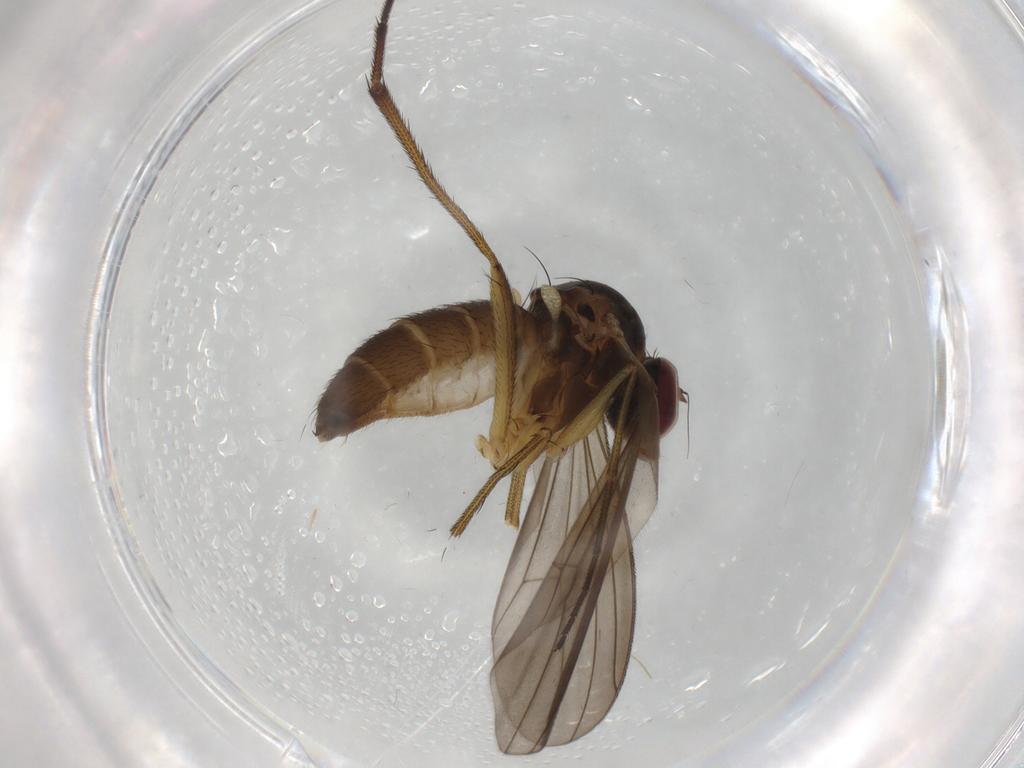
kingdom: Animalia
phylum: Arthropoda
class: Insecta
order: Diptera
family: Dolichopodidae
